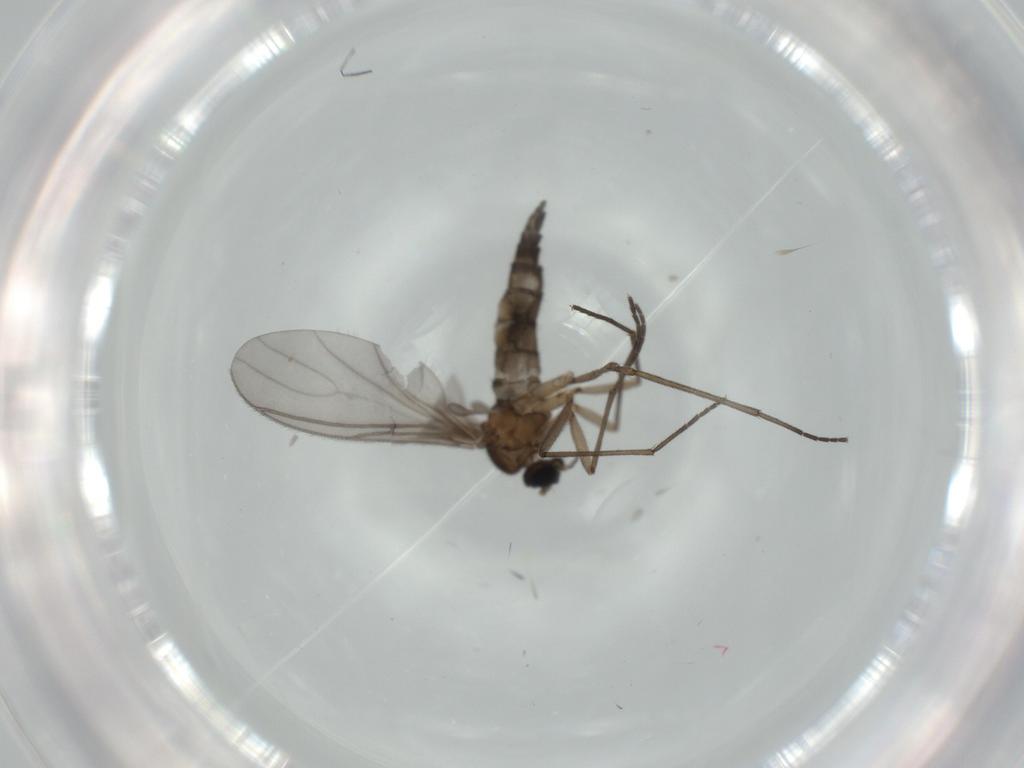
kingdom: Animalia
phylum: Arthropoda
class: Insecta
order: Diptera
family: Sciaridae
